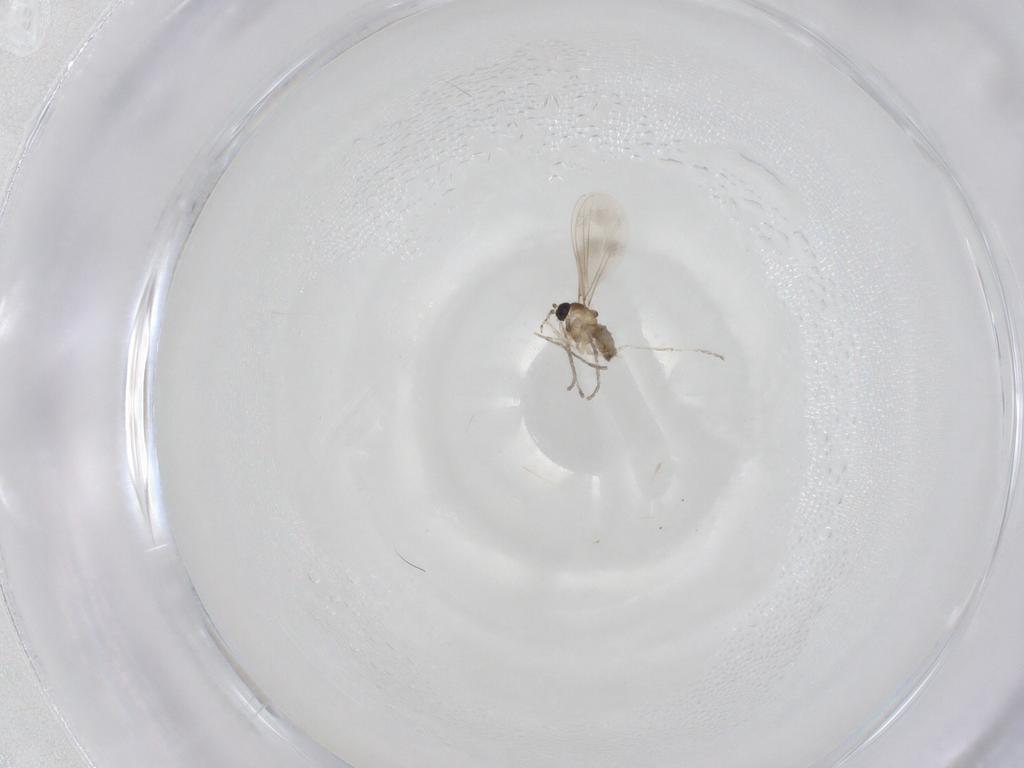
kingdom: Animalia
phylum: Arthropoda
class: Insecta
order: Diptera
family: Cecidomyiidae
